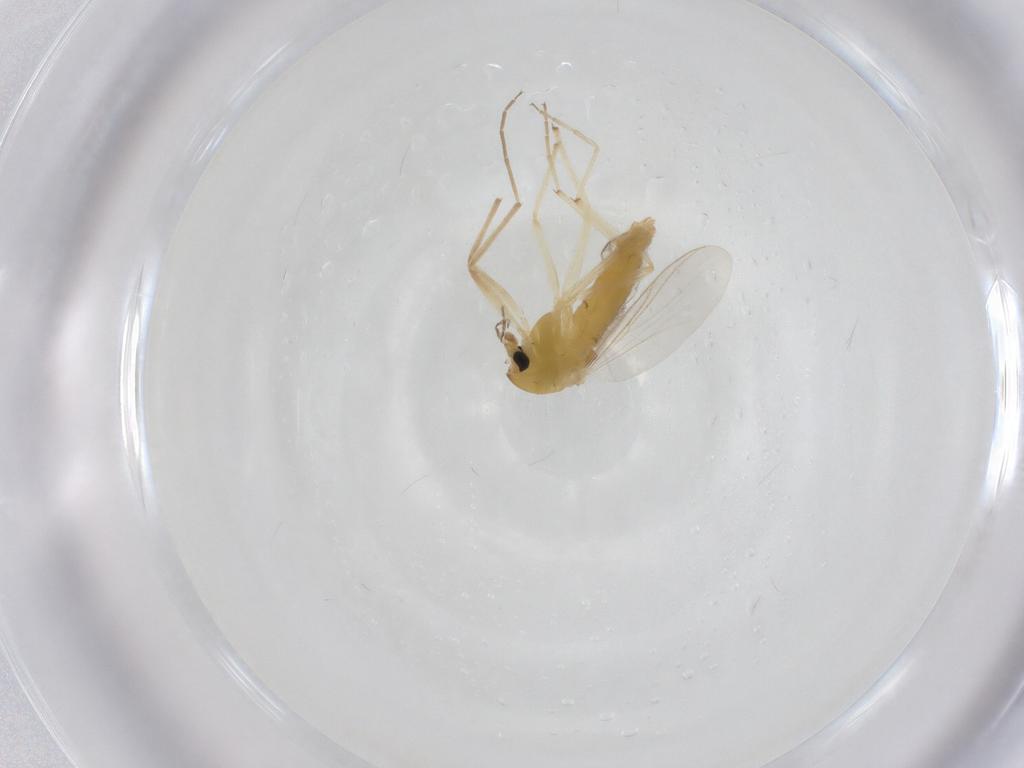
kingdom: Animalia
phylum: Arthropoda
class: Insecta
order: Diptera
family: Chironomidae
